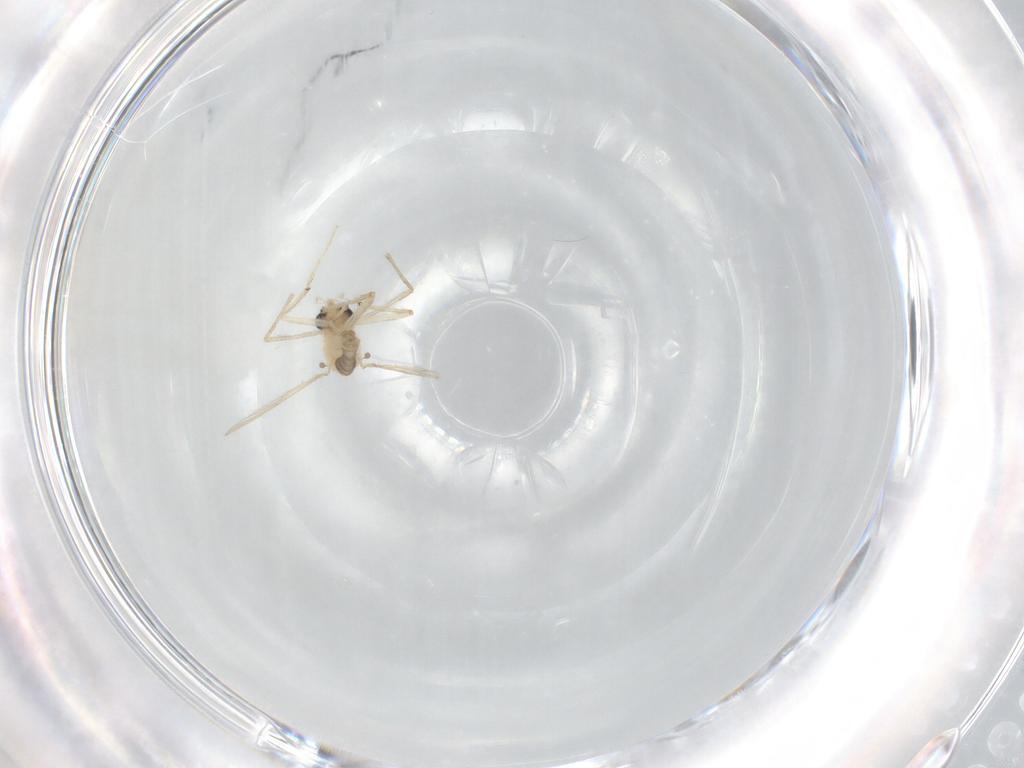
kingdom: Animalia
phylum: Arthropoda
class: Insecta
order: Diptera
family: Chironomidae
